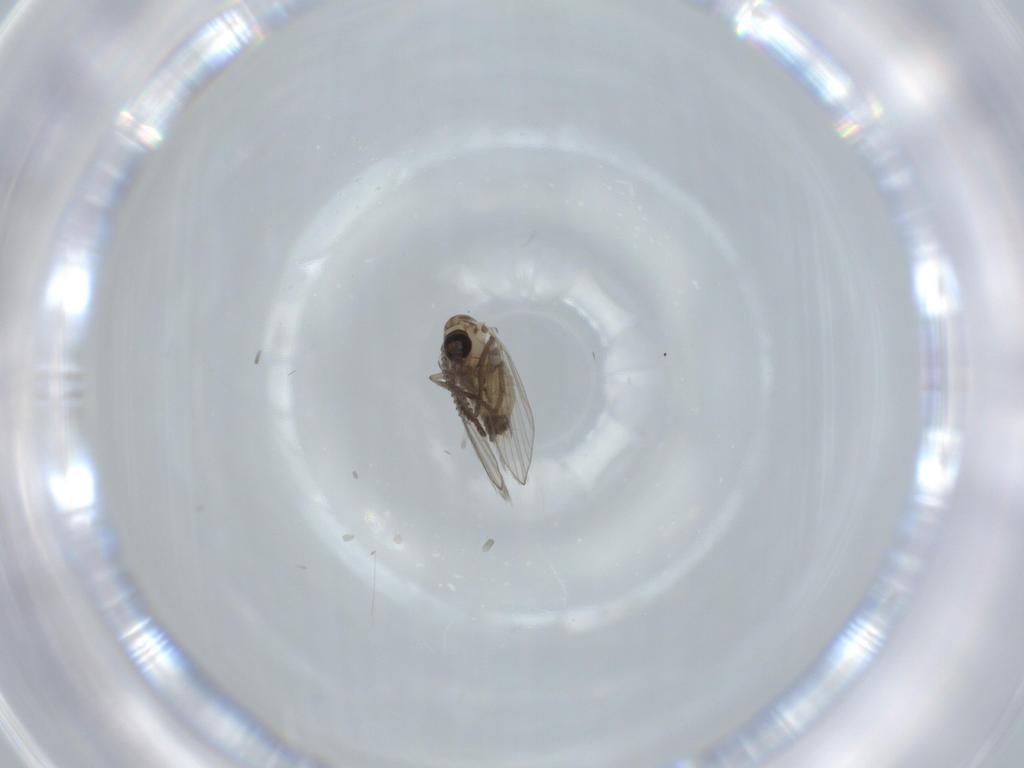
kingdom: Animalia
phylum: Arthropoda
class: Insecta
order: Diptera
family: Psychodidae
